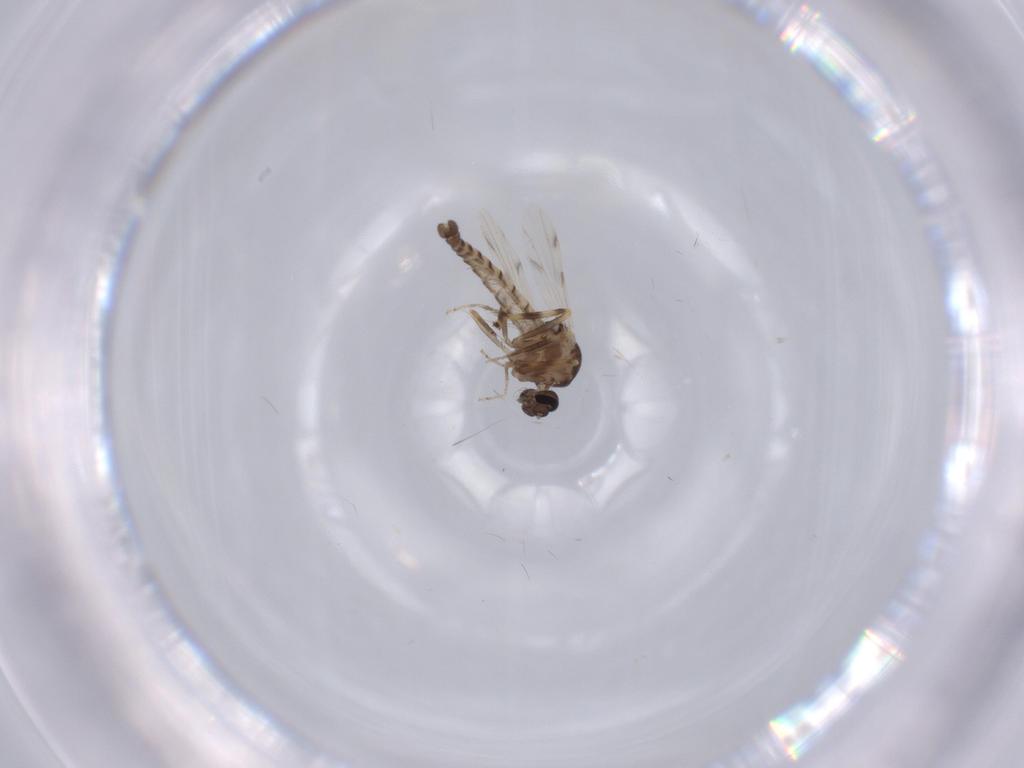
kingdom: Animalia
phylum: Arthropoda
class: Insecta
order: Diptera
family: Ceratopogonidae
